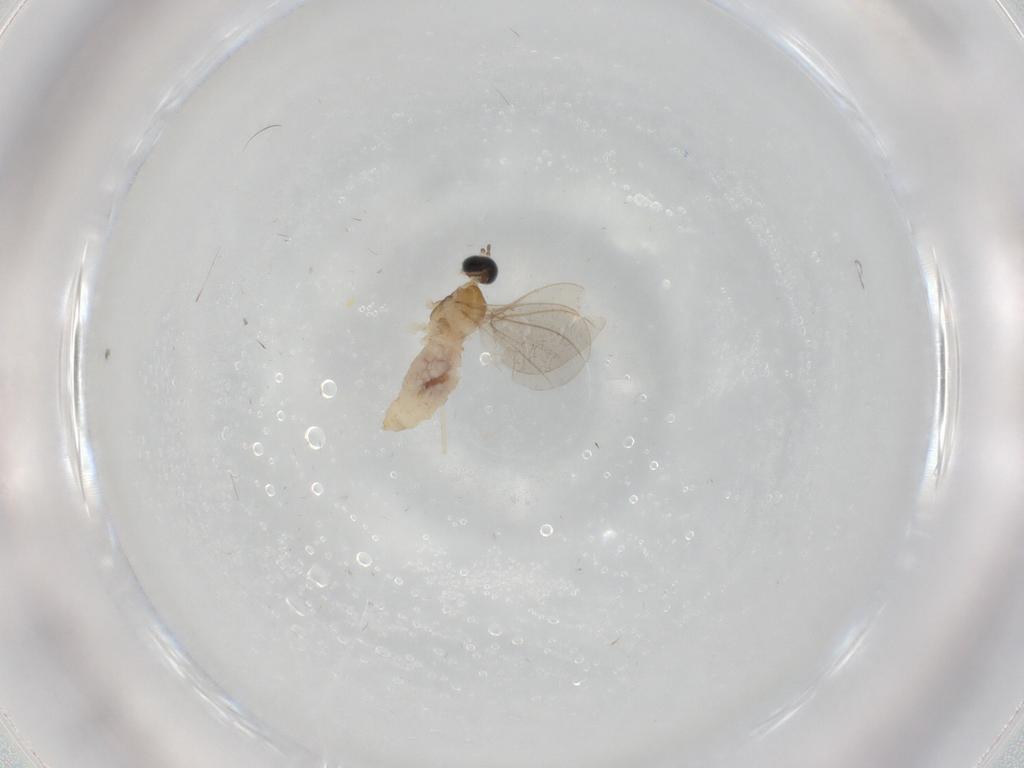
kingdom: Animalia
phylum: Arthropoda
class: Insecta
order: Diptera
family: Cecidomyiidae
